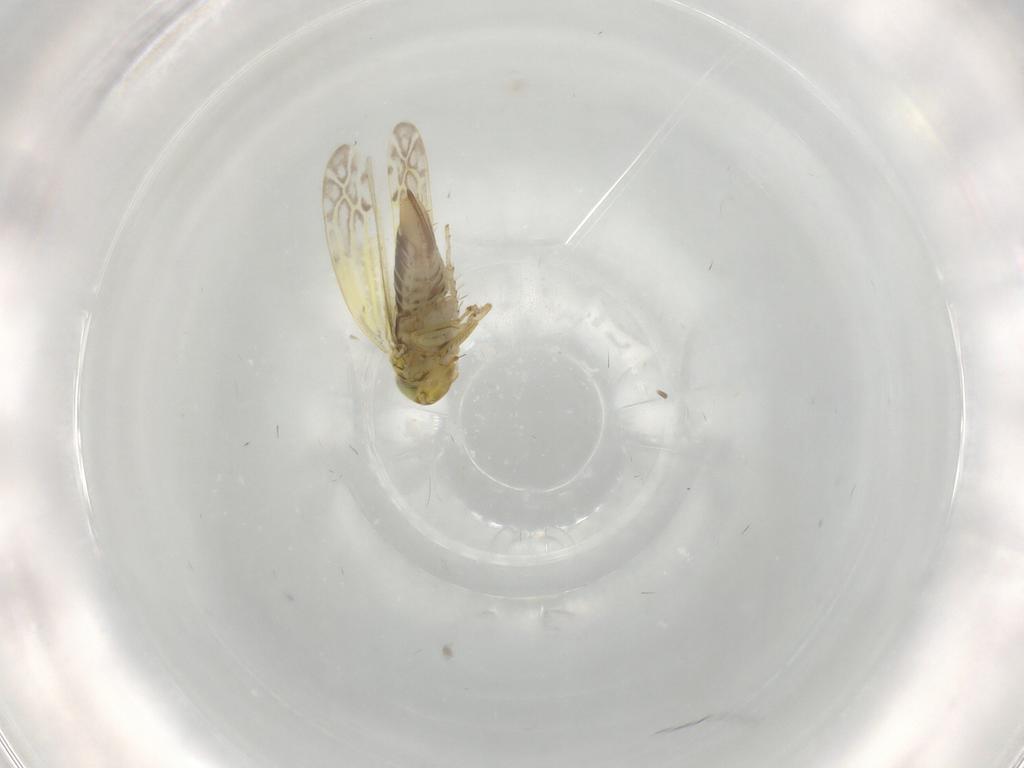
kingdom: Animalia
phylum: Arthropoda
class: Insecta
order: Hemiptera
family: Cicadellidae
